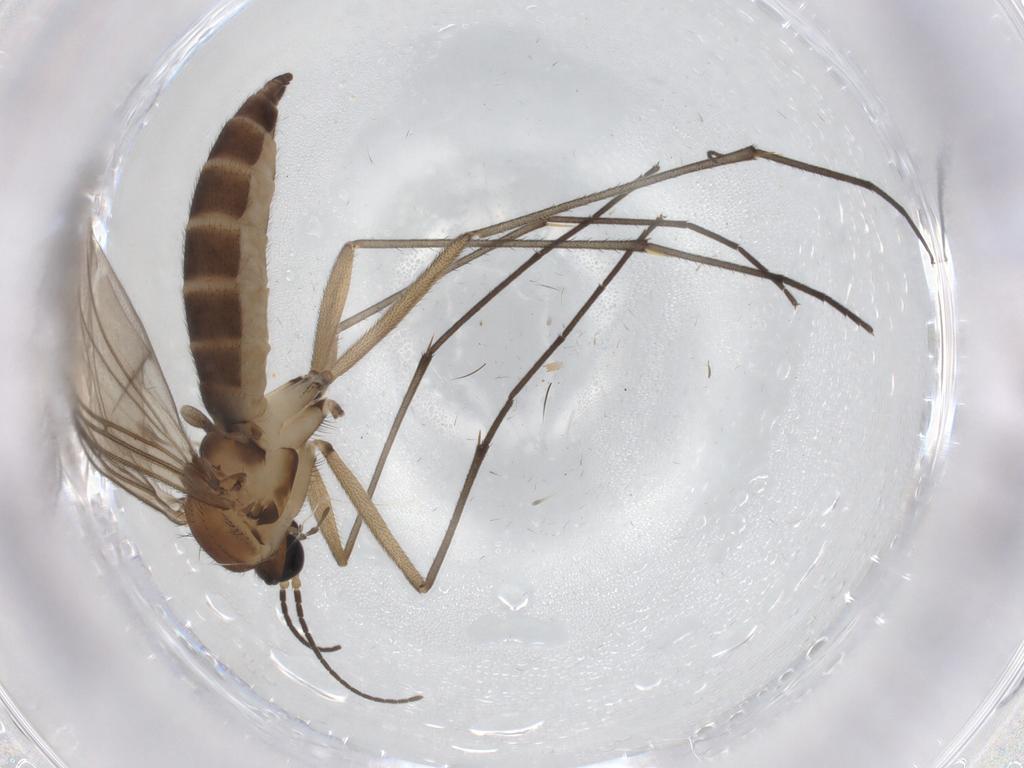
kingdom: Animalia
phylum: Arthropoda
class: Insecta
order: Diptera
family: Sciaridae
